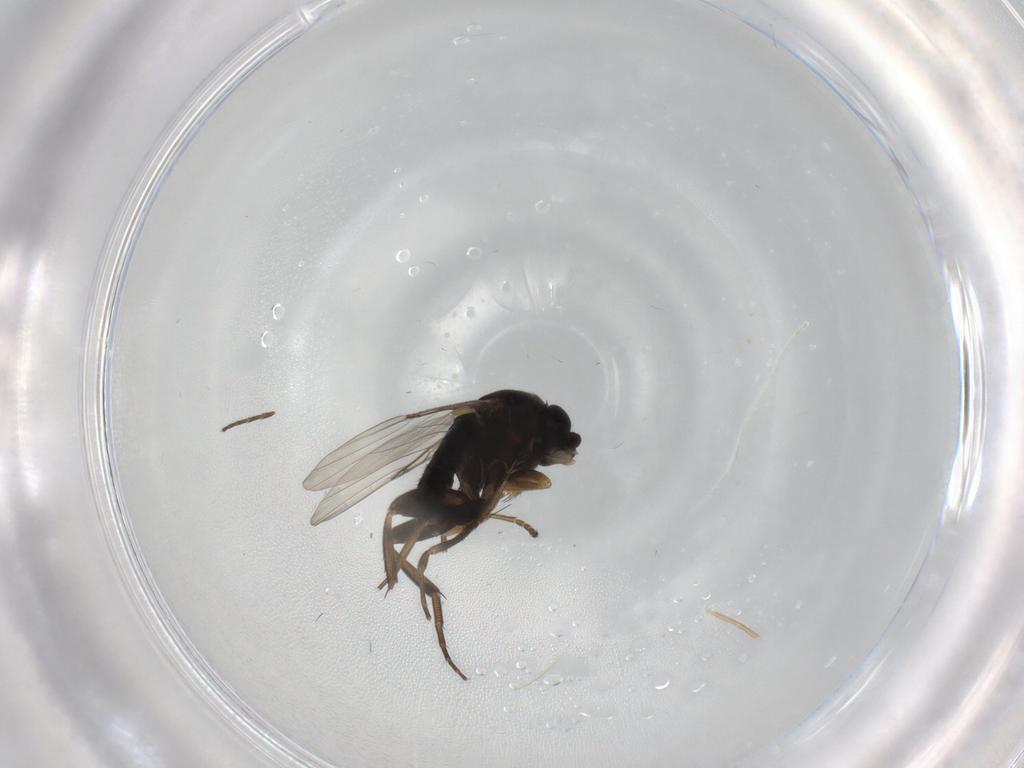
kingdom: Animalia
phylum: Arthropoda
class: Insecta
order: Diptera
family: Phoridae
